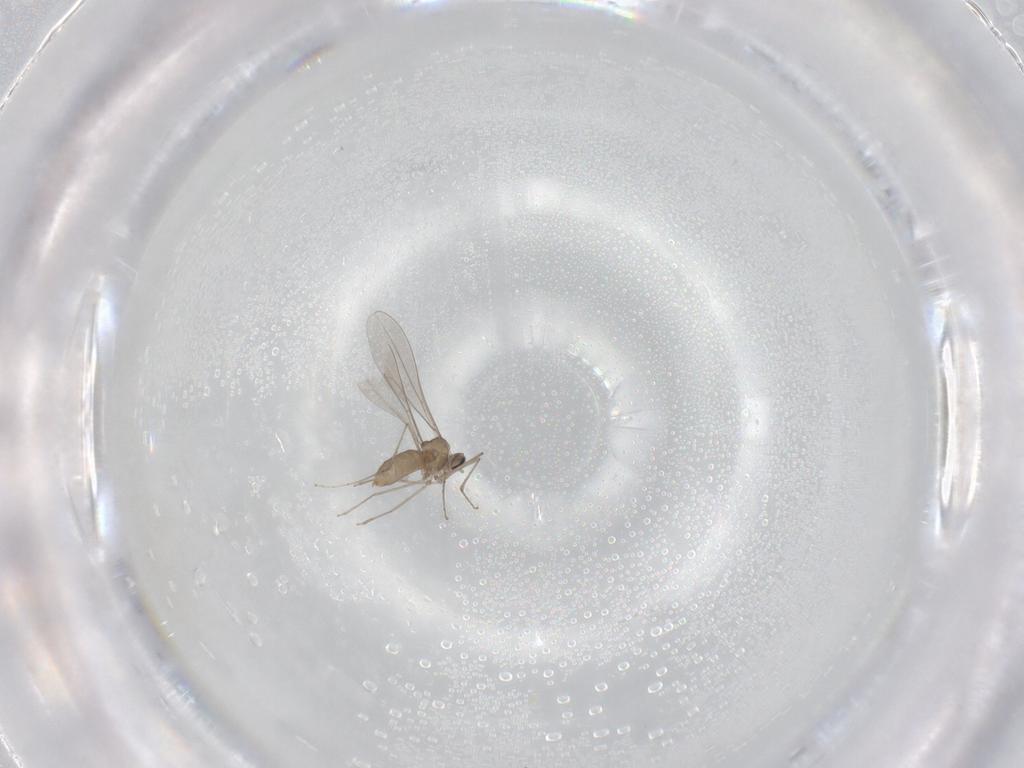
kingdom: Animalia
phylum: Arthropoda
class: Insecta
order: Diptera
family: Cecidomyiidae
